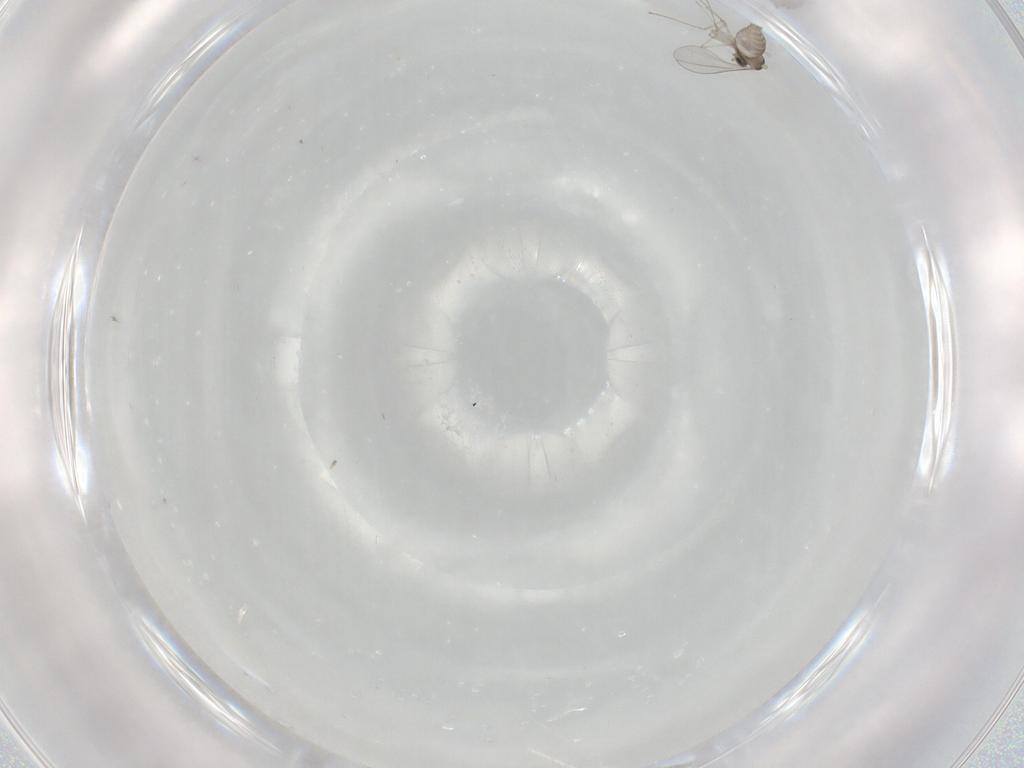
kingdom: Animalia
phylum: Arthropoda
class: Insecta
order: Diptera
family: Cecidomyiidae
